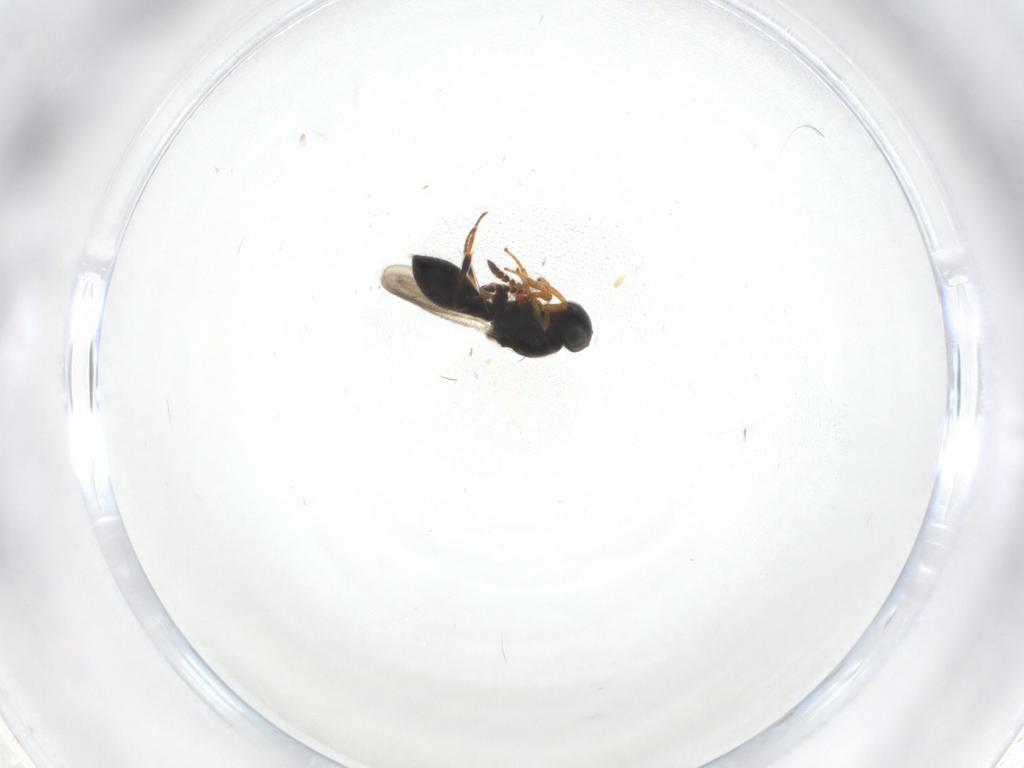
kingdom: Animalia
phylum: Arthropoda
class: Insecta
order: Hymenoptera
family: Platygastridae
